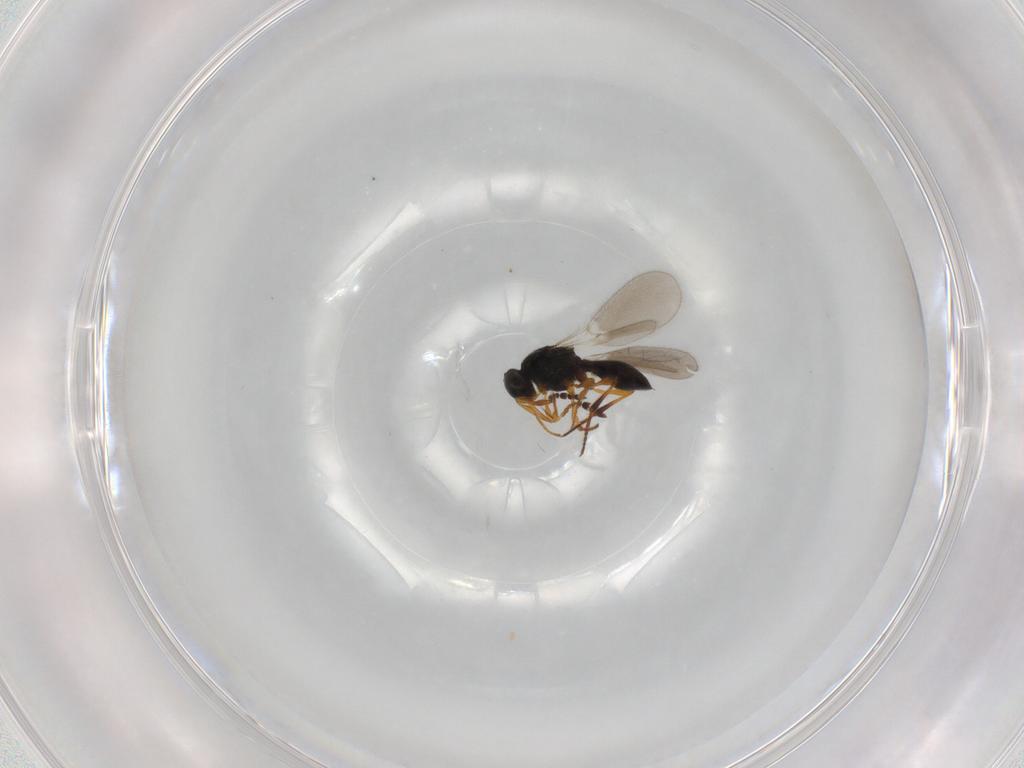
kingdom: Animalia
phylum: Arthropoda
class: Insecta
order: Hymenoptera
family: Platygastridae
